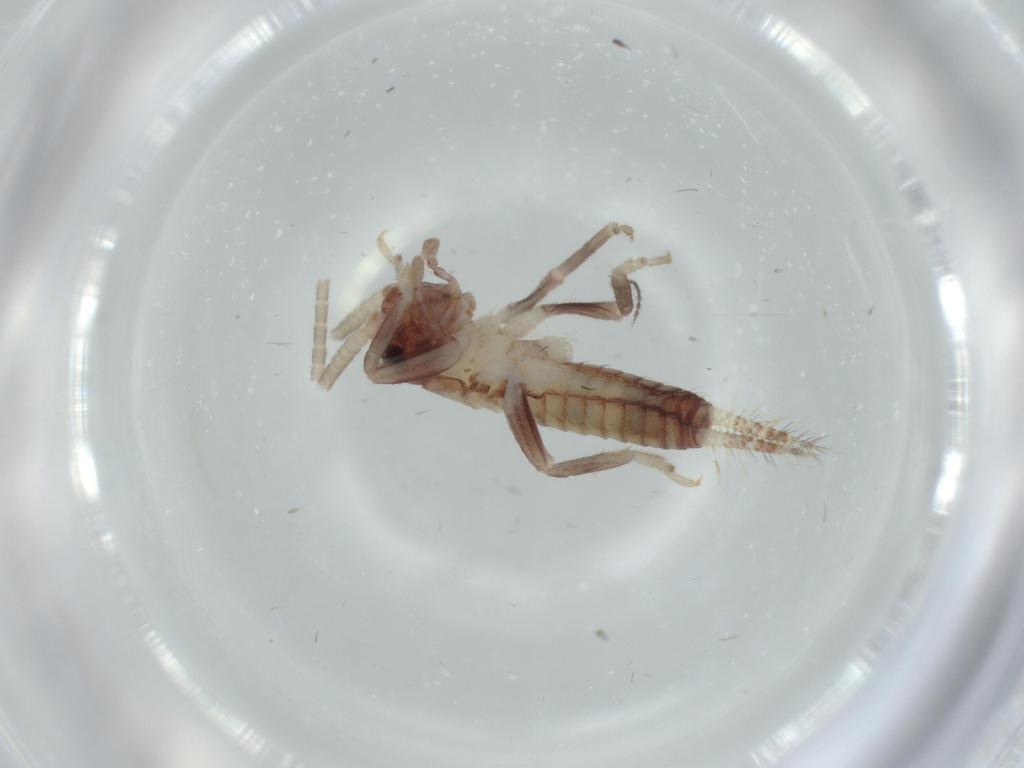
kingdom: Animalia
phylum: Arthropoda
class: Insecta
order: Orthoptera
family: Gryllidae
